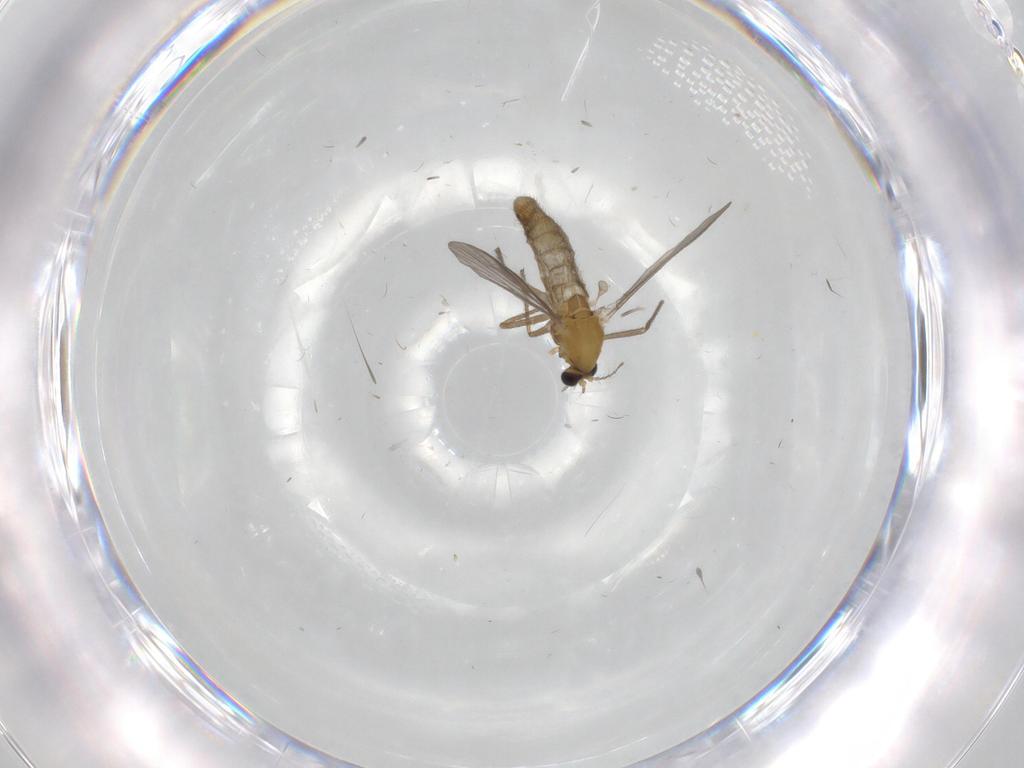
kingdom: Animalia
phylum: Arthropoda
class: Insecta
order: Diptera
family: Chironomidae
